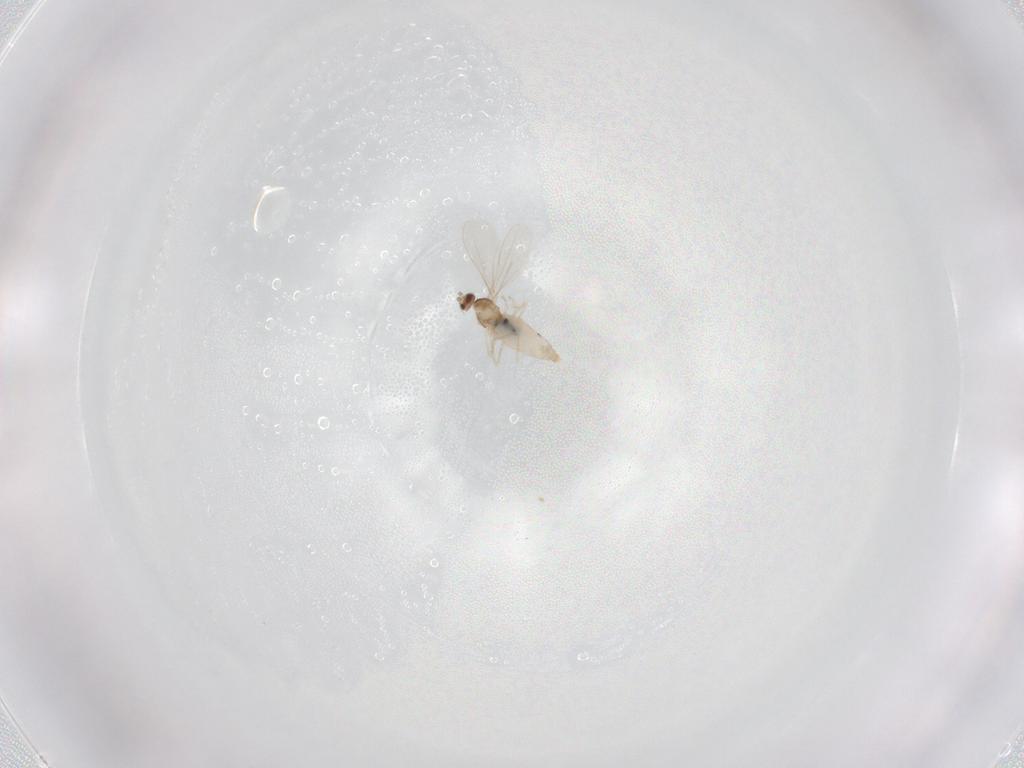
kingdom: Animalia
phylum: Arthropoda
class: Insecta
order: Diptera
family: Cecidomyiidae
